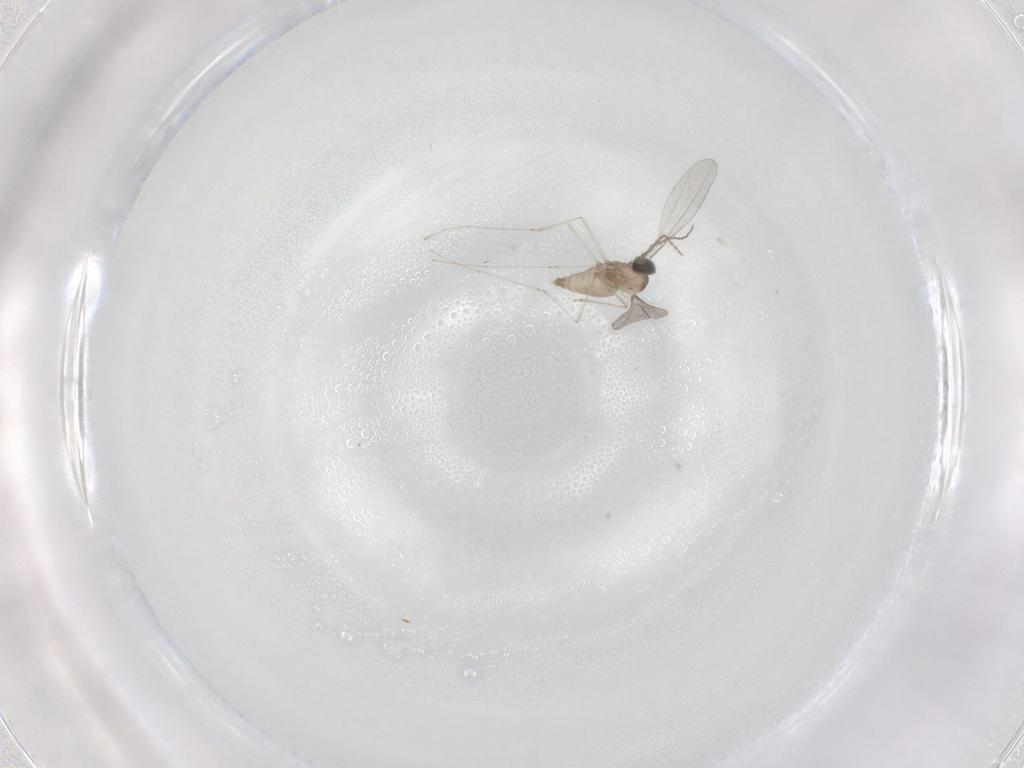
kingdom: Animalia
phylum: Arthropoda
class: Insecta
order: Diptera
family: Cecidomyiidae
